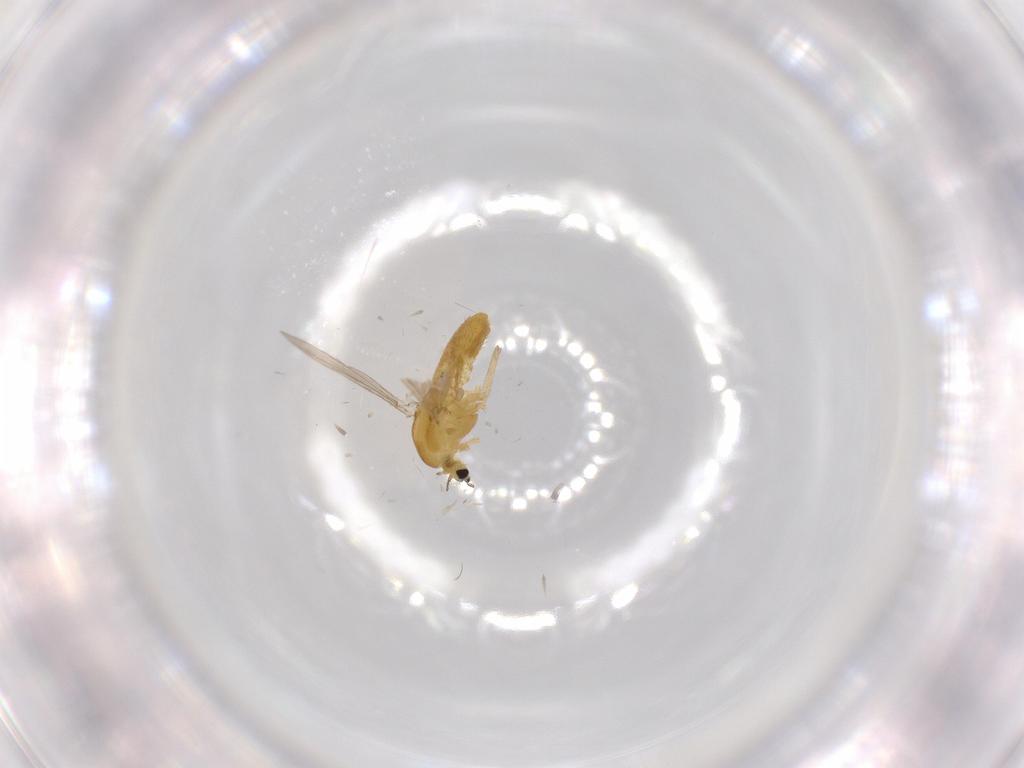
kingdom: Animalia
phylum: Arthropoda
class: Insecta
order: Diptera
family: Chironomidae
